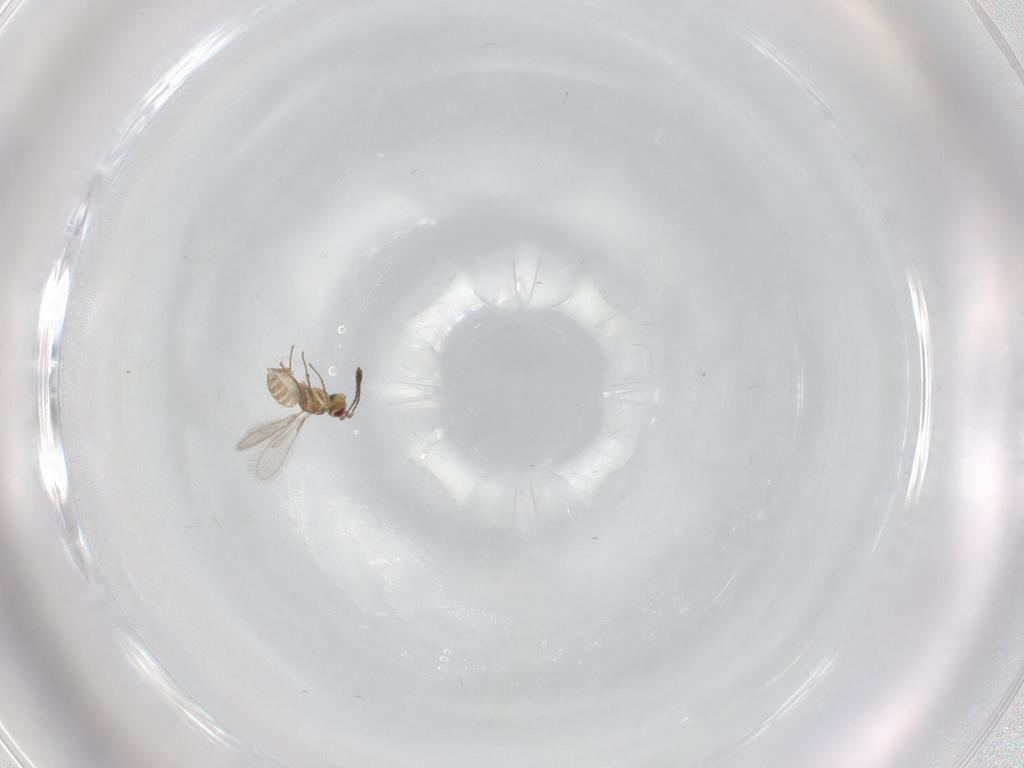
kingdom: Animalia
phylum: Arthropoda
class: Insecta
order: Hymenoptera
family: Mymaridae
